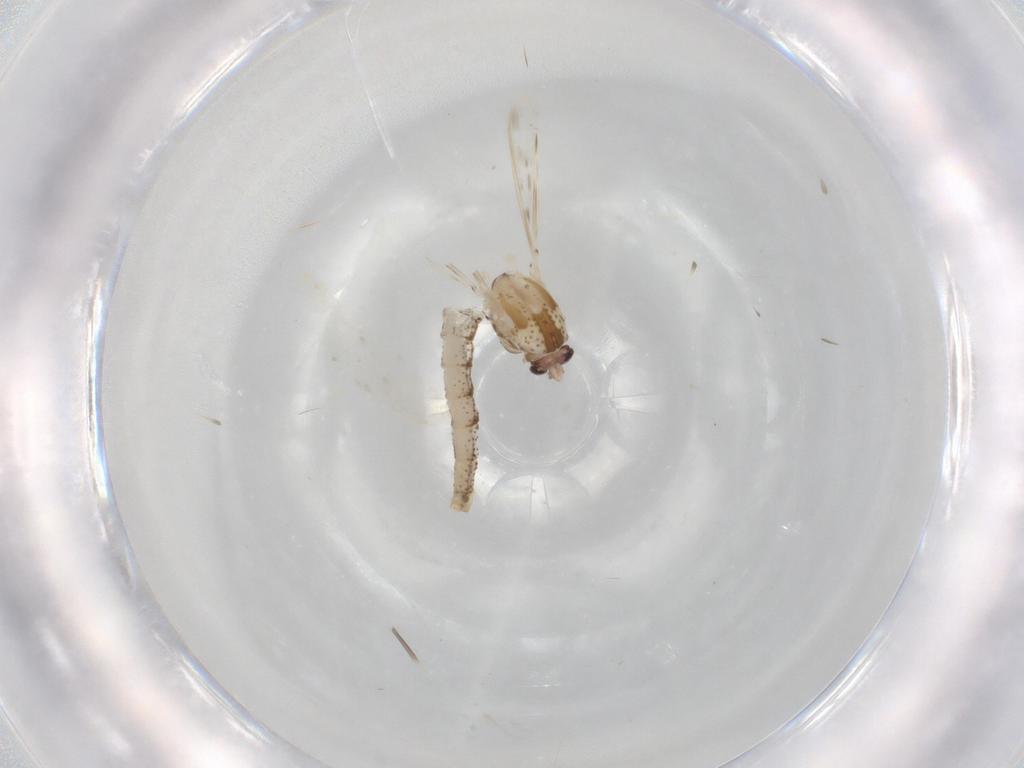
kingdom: Animalia
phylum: Arthropoda
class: Insecta
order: Diptera
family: Chaoboridae
